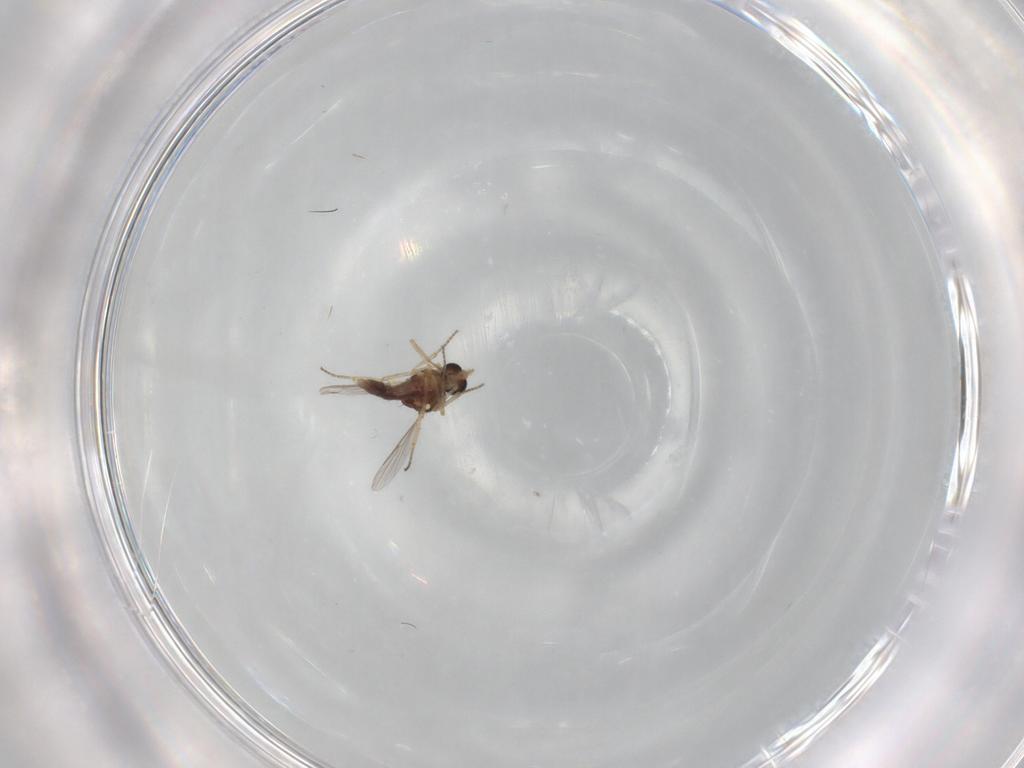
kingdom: Animalia
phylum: Arthropoda
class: Insecta
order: Diptera
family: Ceratopogonidae
